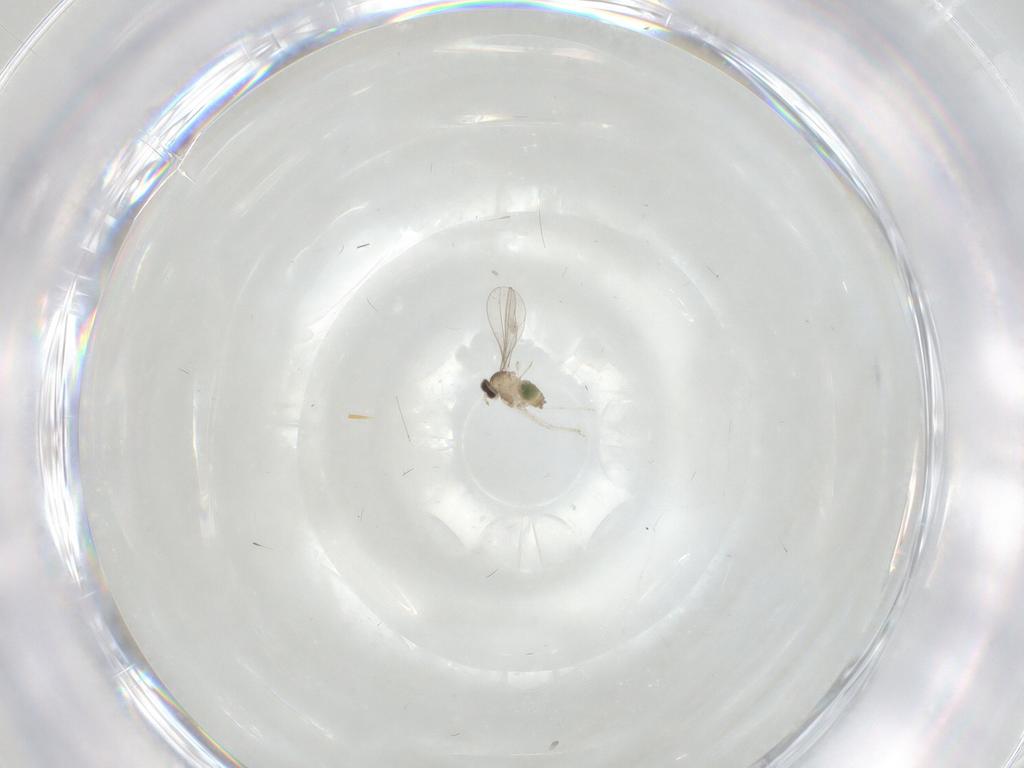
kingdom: Animalia
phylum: Arthropoda
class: Insecta
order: Diptera
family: Cecidomyiidae
